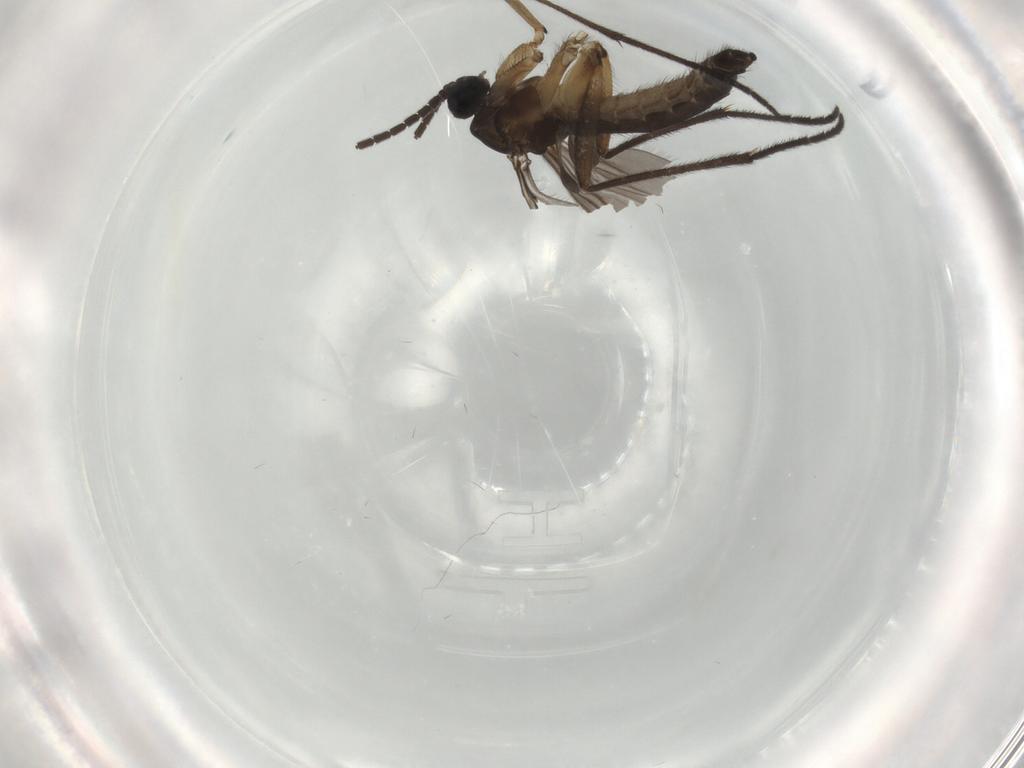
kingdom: Animalia
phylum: Arthropoda
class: Insecta
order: Diptera
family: Sciaridae
